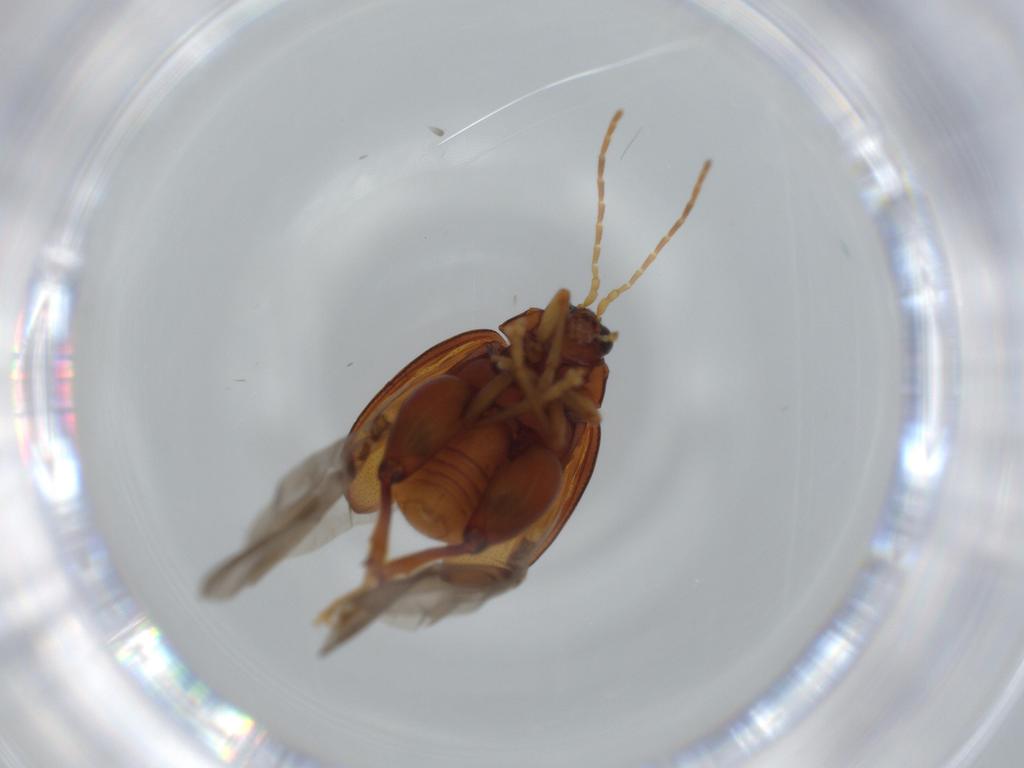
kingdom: Animalia
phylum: Arthropoda
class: Insecta
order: Coleoptera
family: Chrysomelidae
